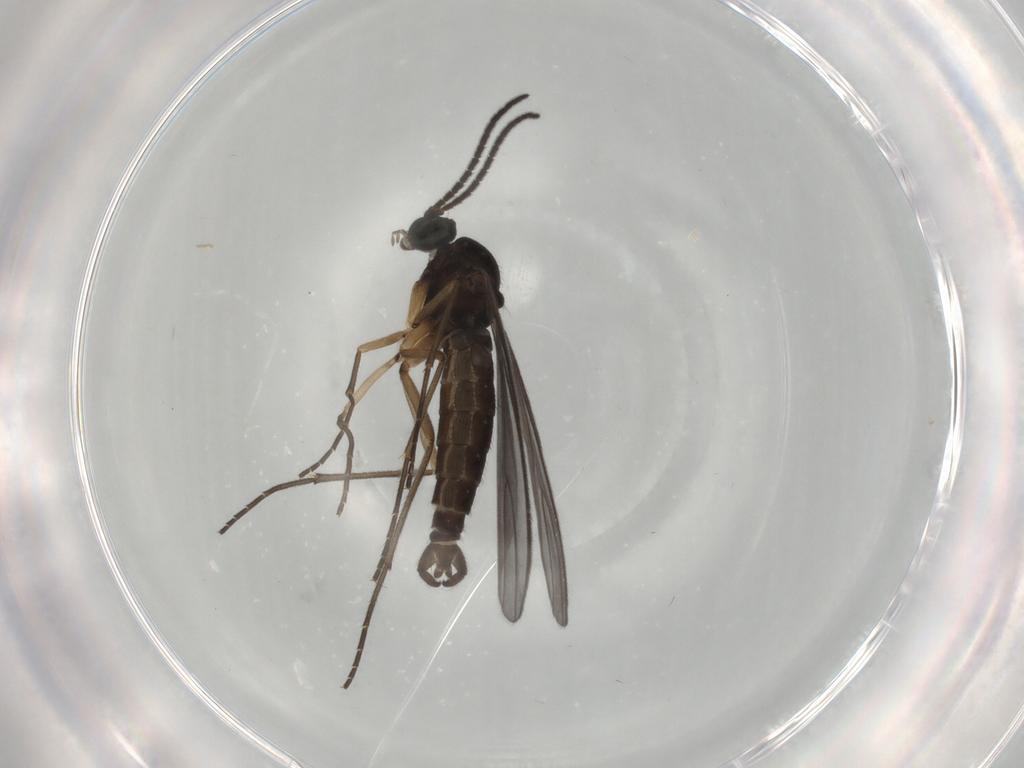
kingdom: Animalia
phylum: Arthropoda
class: Insecta
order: Diptera
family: Sciaridae
